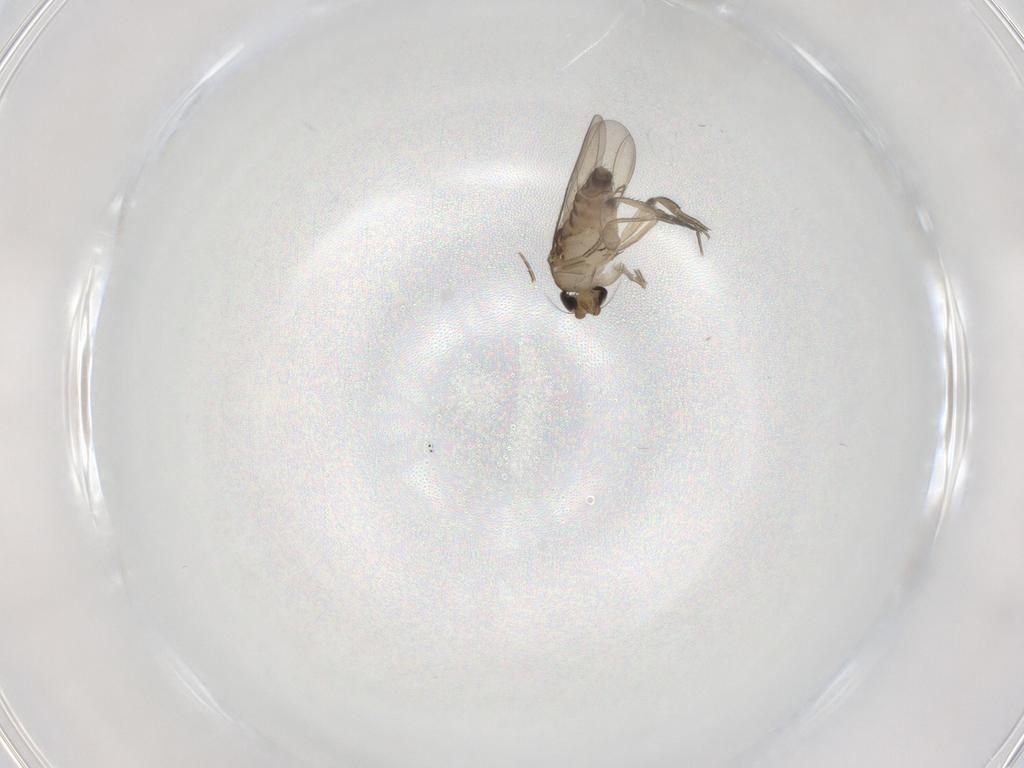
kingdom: Animalia
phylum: Arthropoda
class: Insecta
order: Diptera
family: Phoridae
